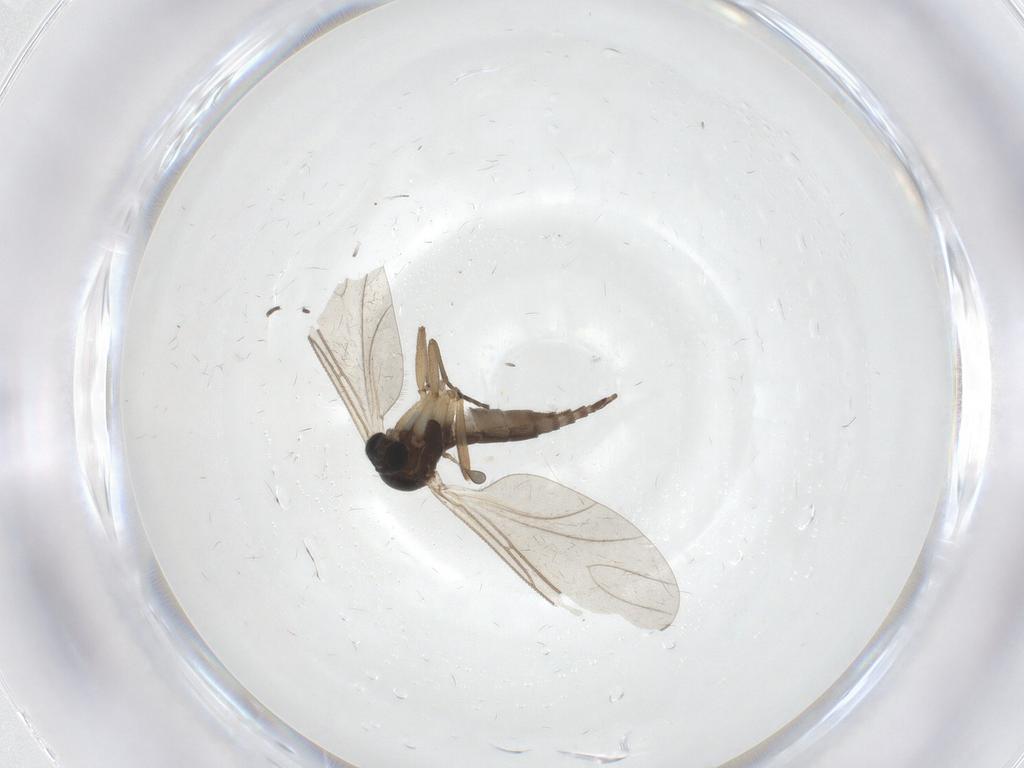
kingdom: Animalia
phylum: Arthropoda
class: Insecta
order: Diptera
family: Sciaridae
